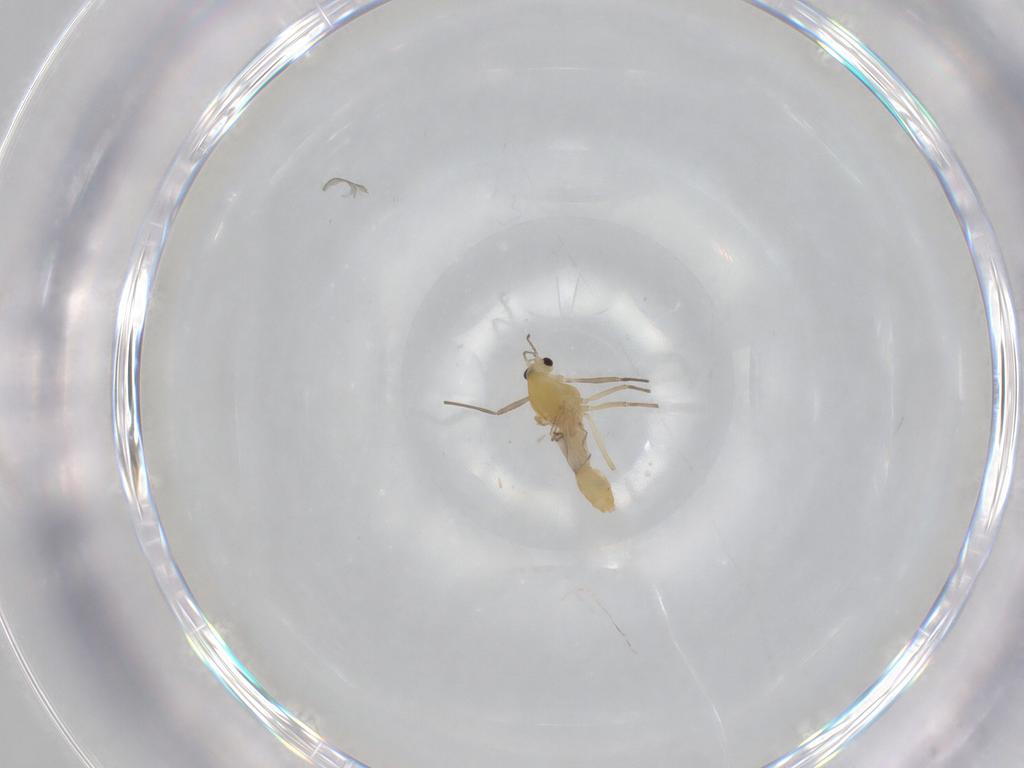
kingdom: Animalia
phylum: Arthropoda
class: Insecta
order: Diptera
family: Chironomidae
